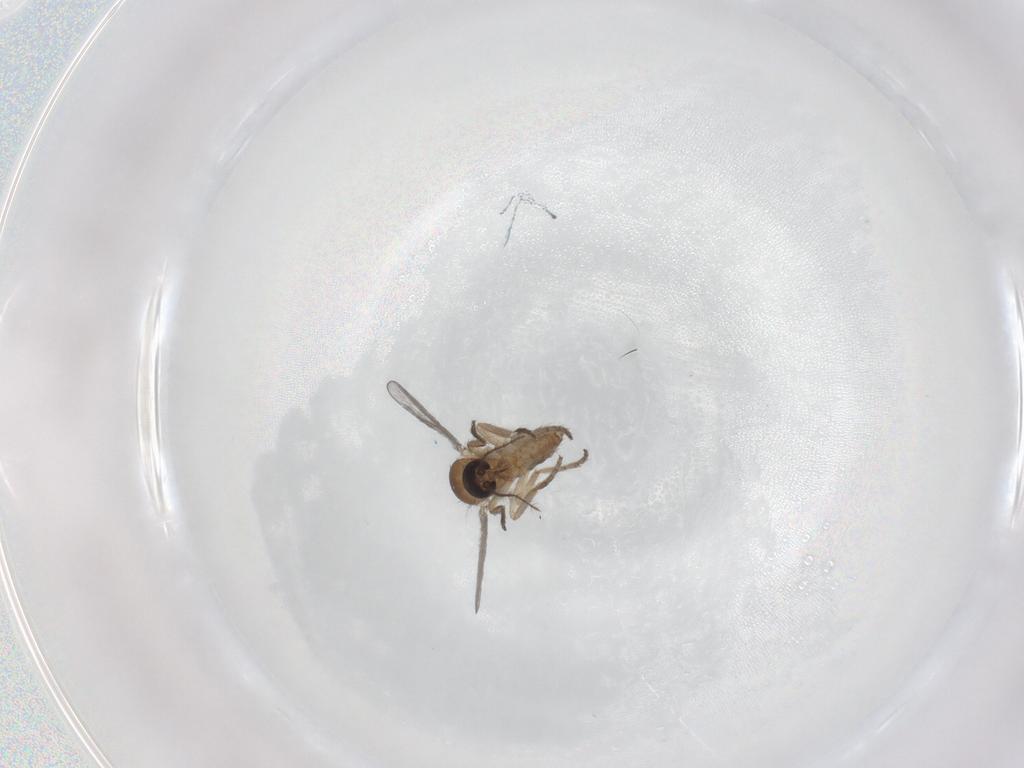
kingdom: Animalia
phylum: Arthropoda
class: Insecta
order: Diptera
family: Ceratopogonidae
